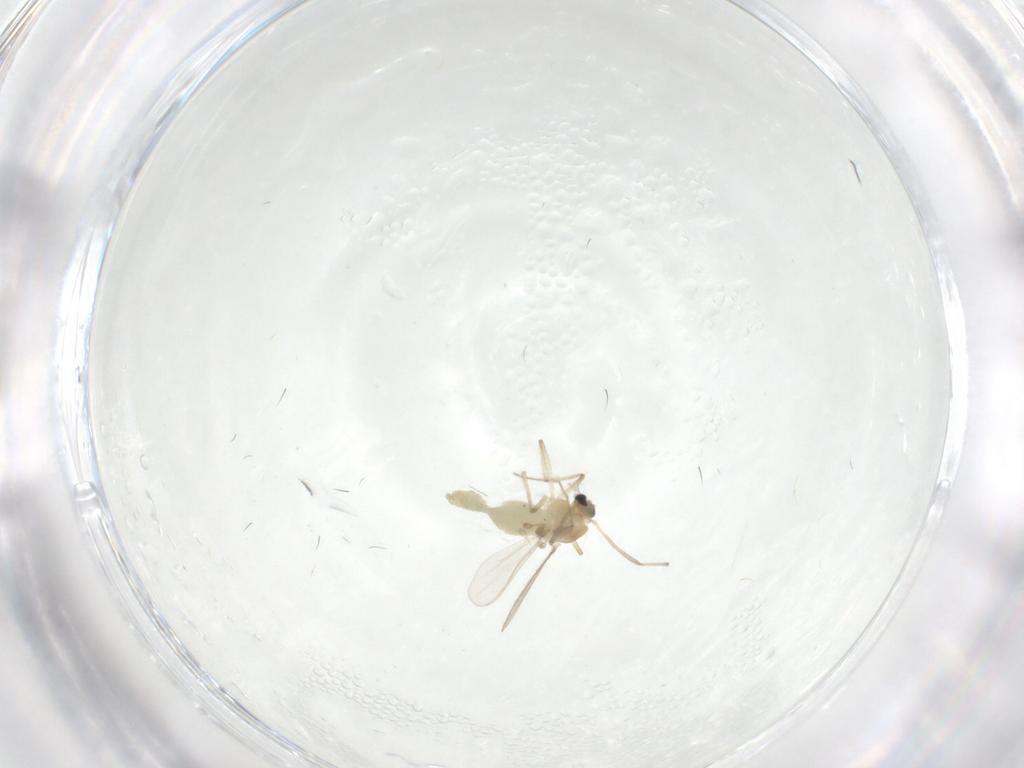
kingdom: Animalia
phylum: Arthropoda
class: Insecta
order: Diptera
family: Chironomidae
